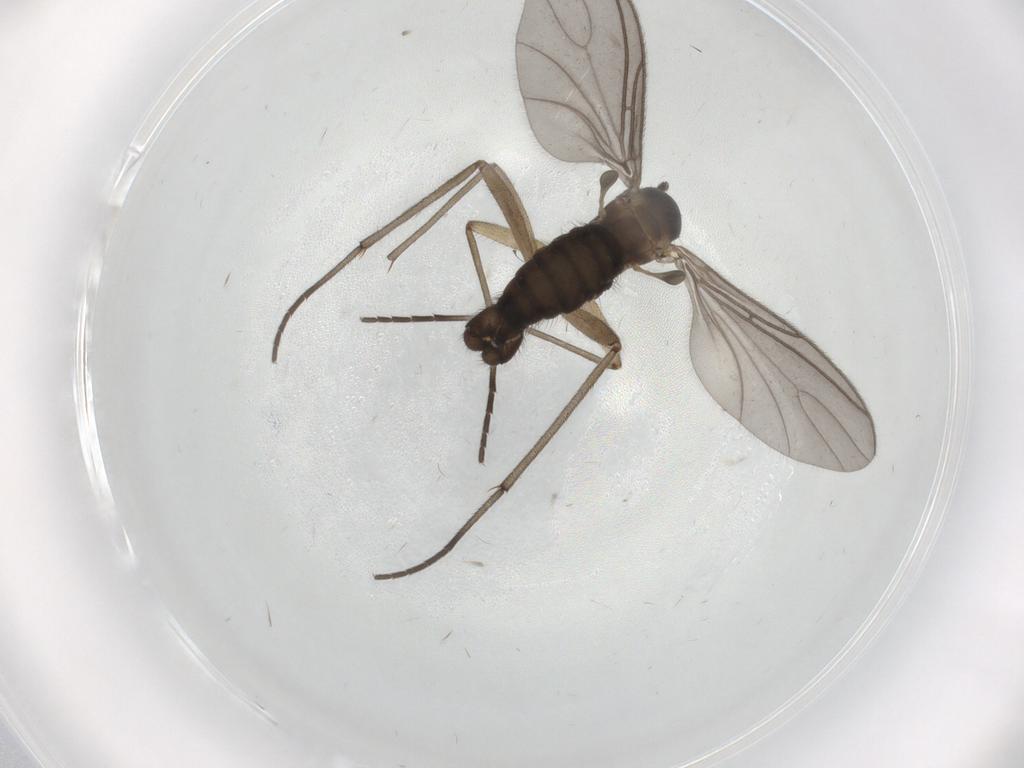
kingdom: Animalia
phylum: Arthropoda
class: Insecta
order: Diptera
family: Sciaridae
